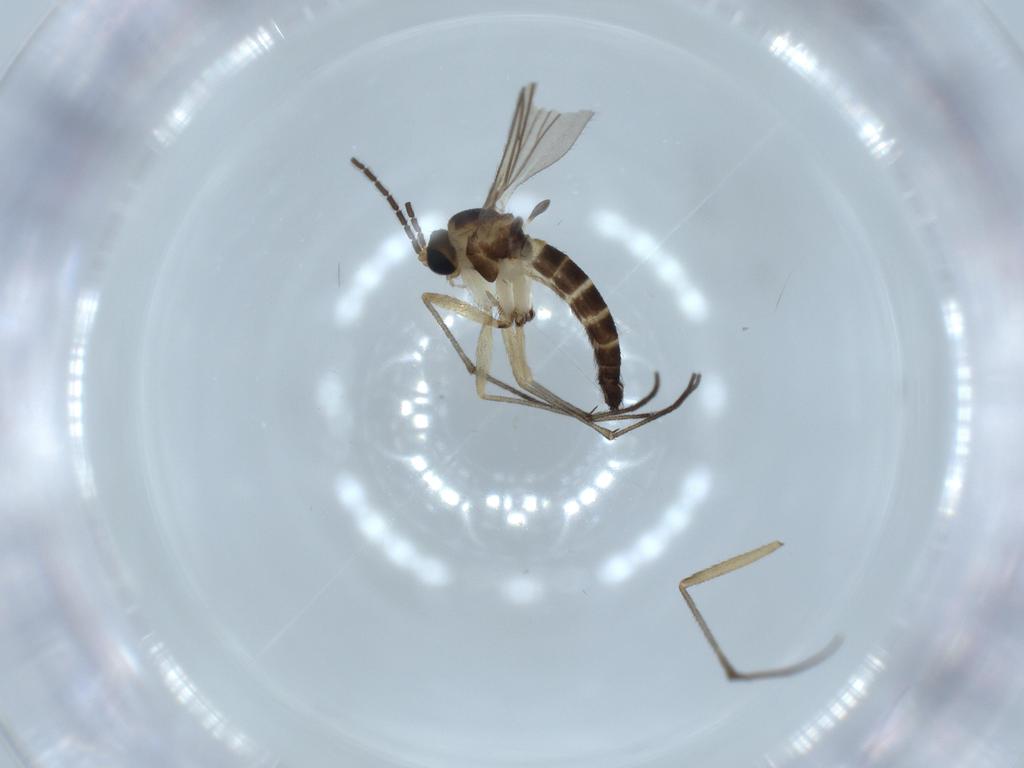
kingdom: Animalia
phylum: Arthropoda
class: Insecta
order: Diptera
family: Sciaridae
